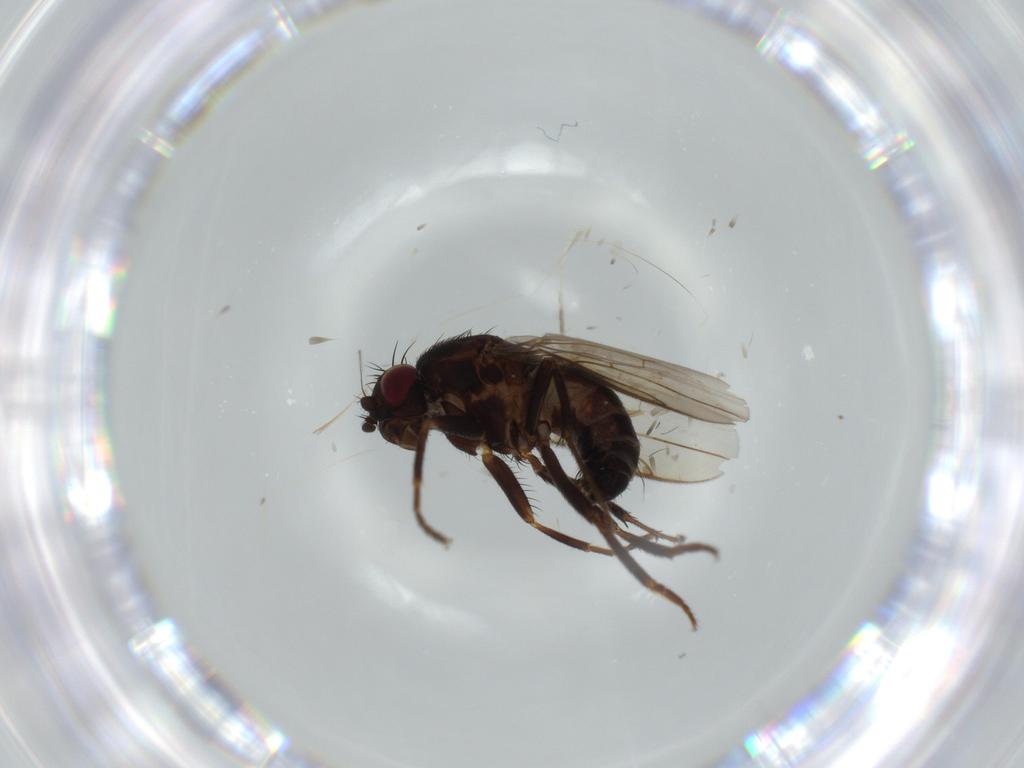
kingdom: Animalia
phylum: Arthropoda
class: Insecta
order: Diptera
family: Sphaeroceridae
